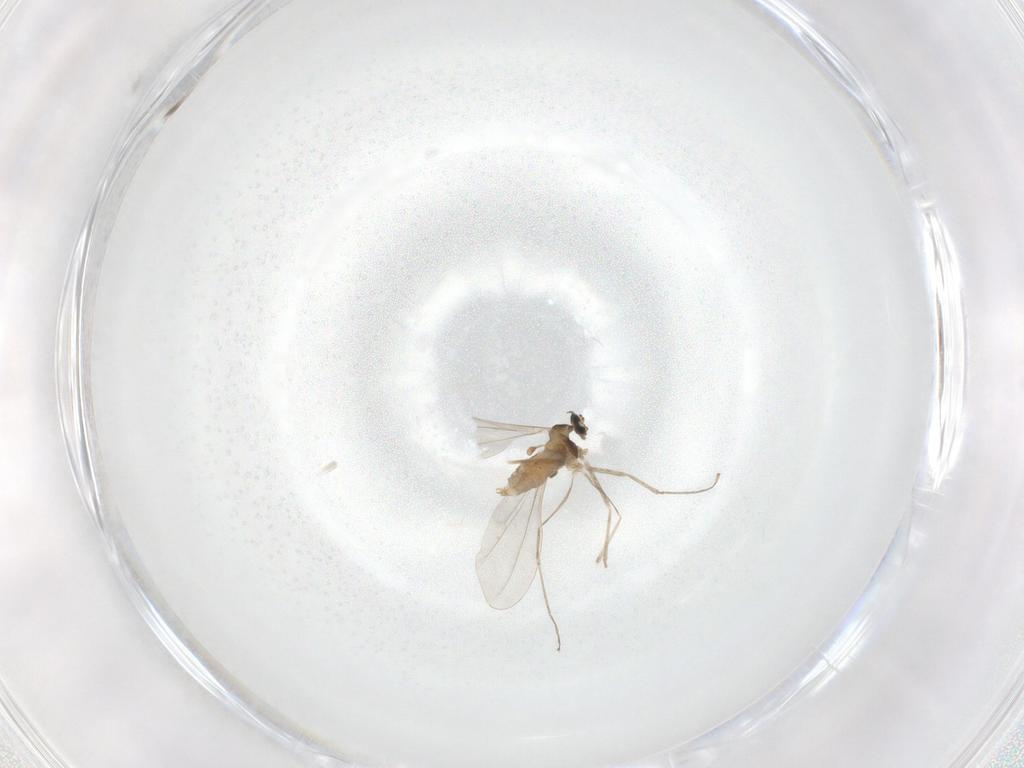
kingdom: Animalia
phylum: Arthropoda
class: Insecta
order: Diptera
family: Cecidomyiidae
